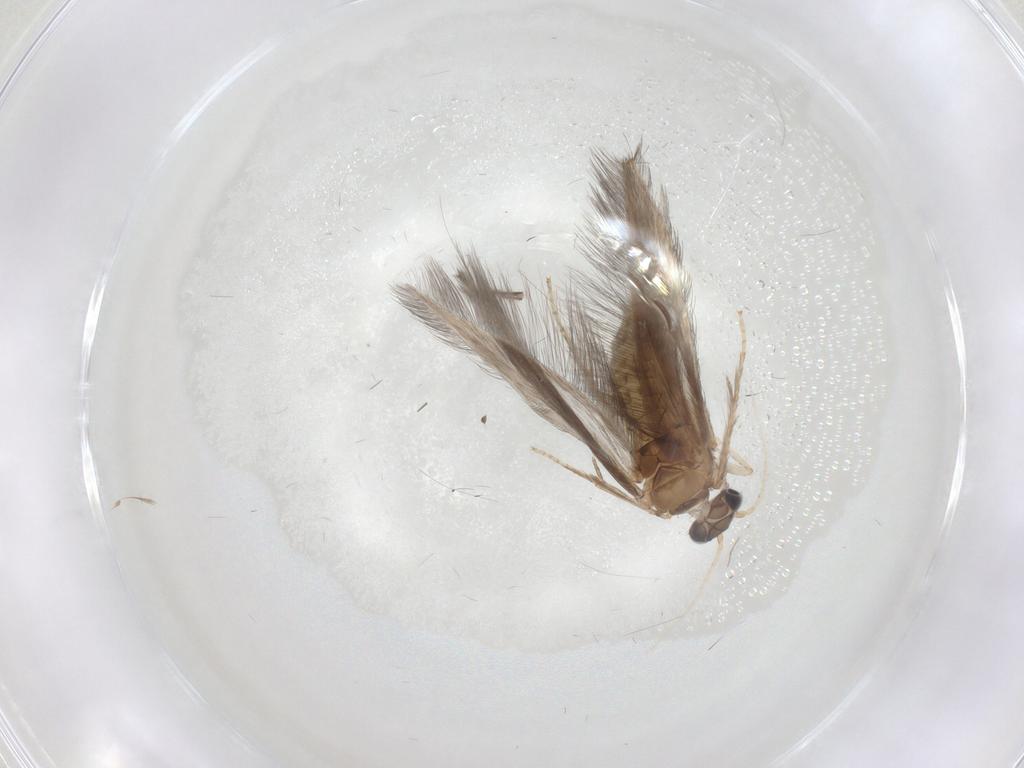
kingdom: Animalia
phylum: Arthropoda
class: Insecta
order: Trichoptera
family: Hydroptilidae
